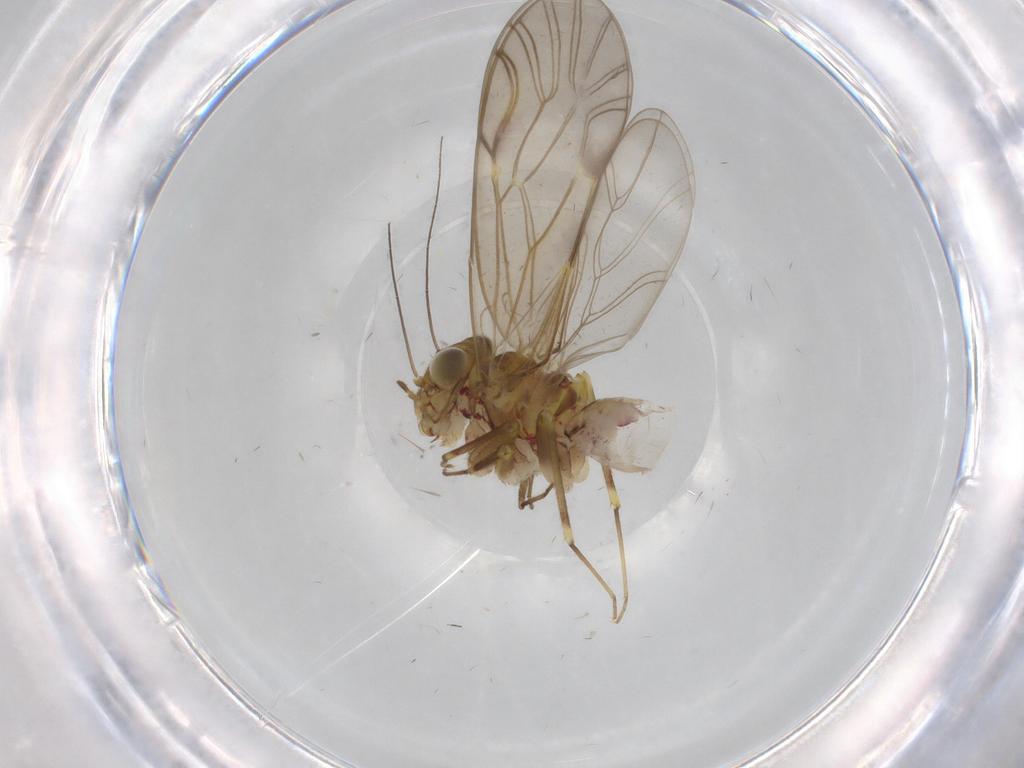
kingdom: Animalia
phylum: Arthropoda
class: Insecta
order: Psocodea
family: Philotarsidae
